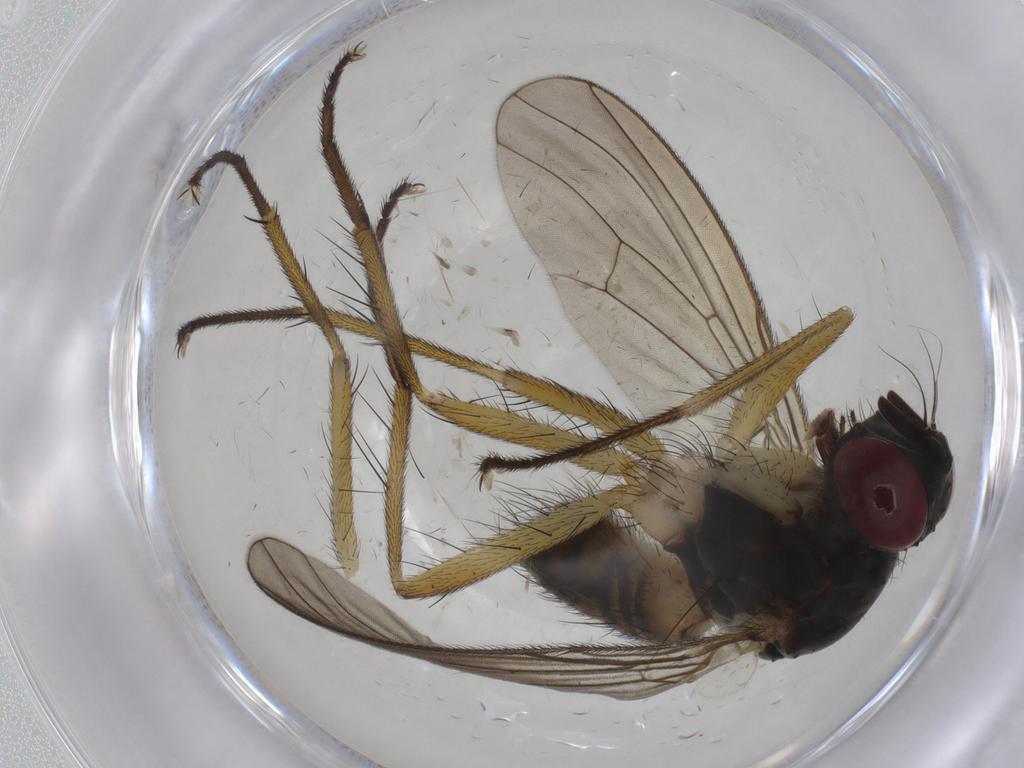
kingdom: Animalia
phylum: Arthropoda
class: Insecta
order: Diptera
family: Muscidae
